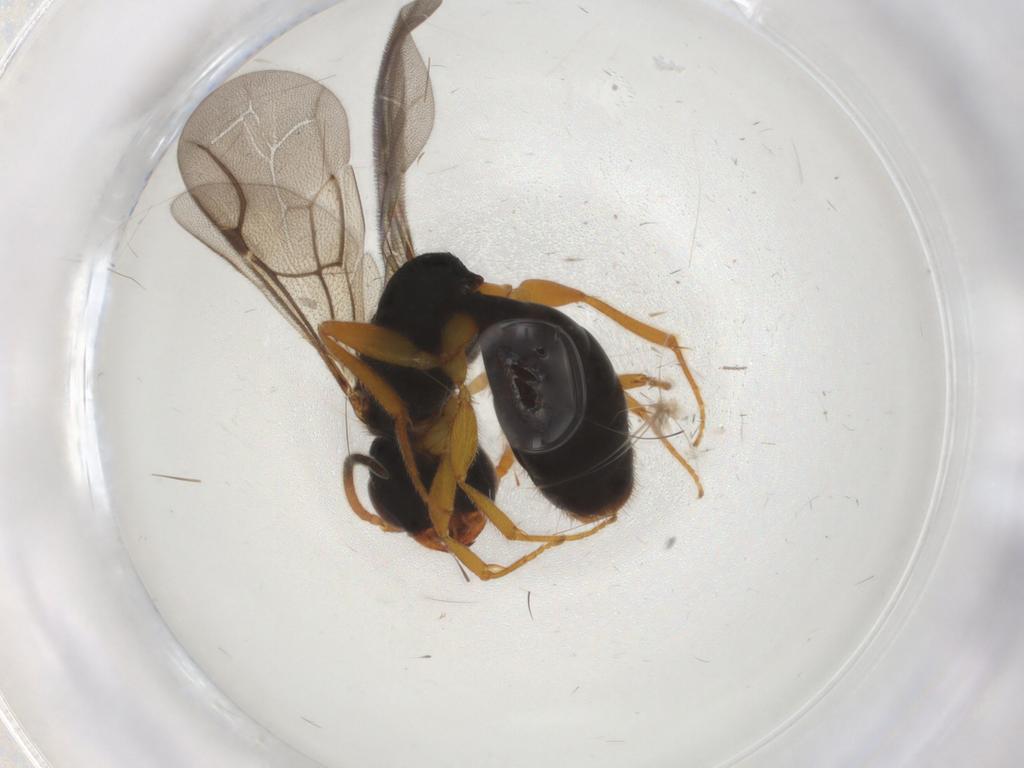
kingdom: Animalia
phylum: Arthropoda
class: Insecta
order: Hymenoptera
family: Bethylidae
